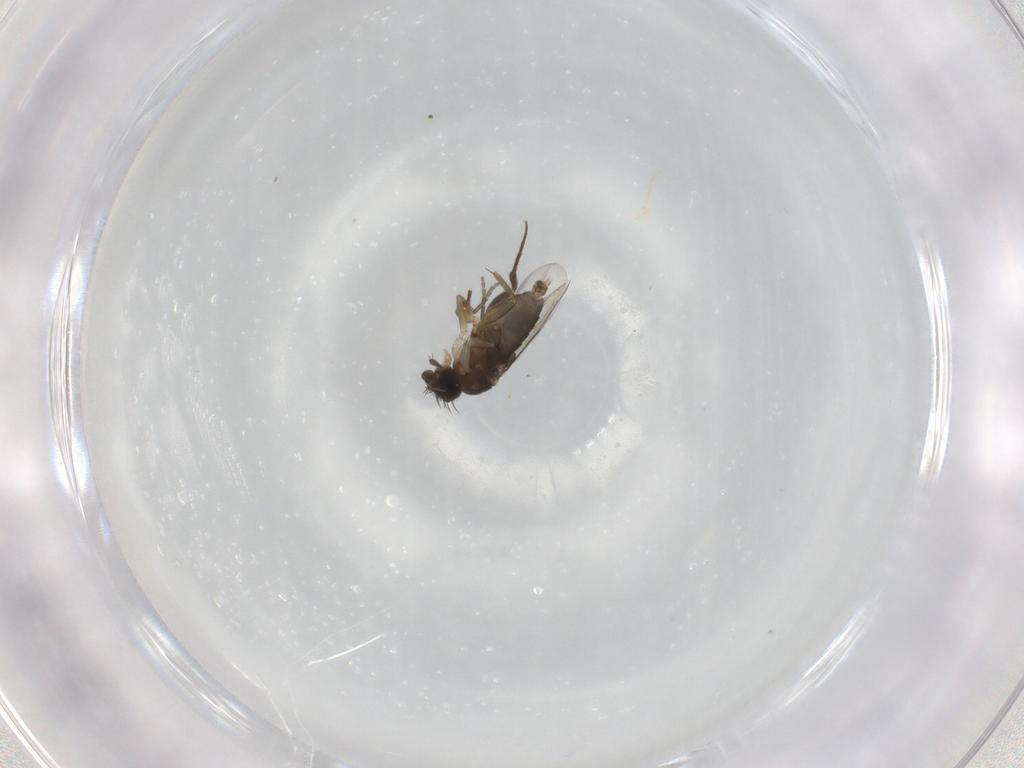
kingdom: Animalia
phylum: Arthropoda
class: Insecta
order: Diptera
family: Phoridae
